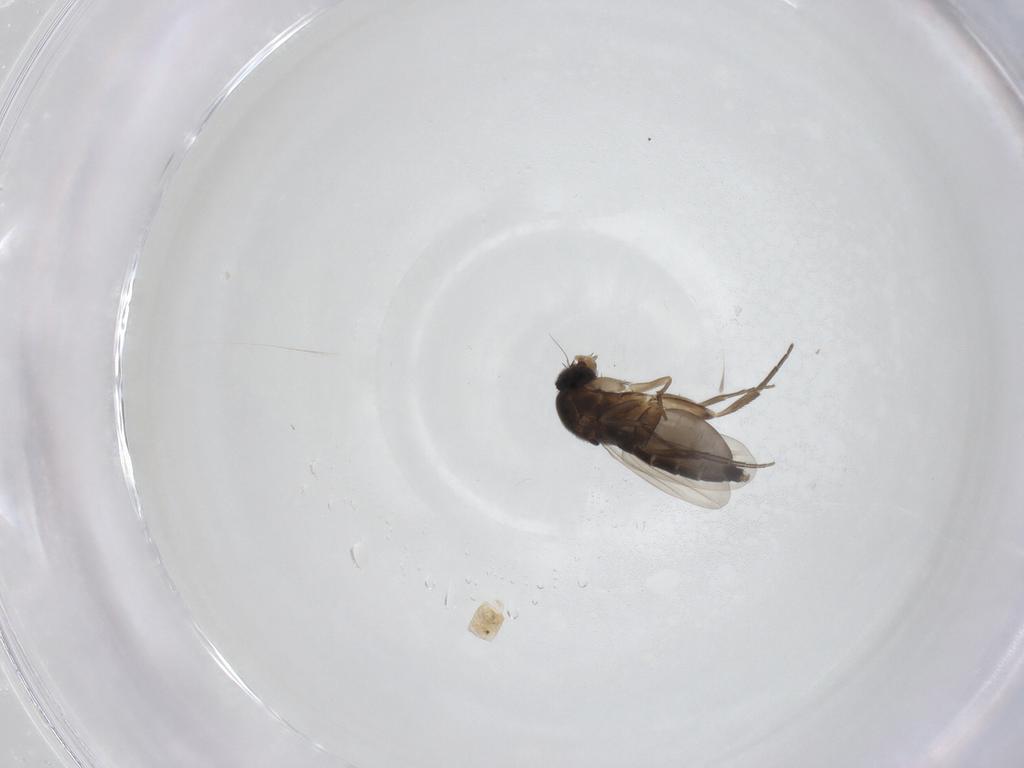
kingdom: Animalia
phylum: Arthropoda
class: Insecta
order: Diptera
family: Phoridae
